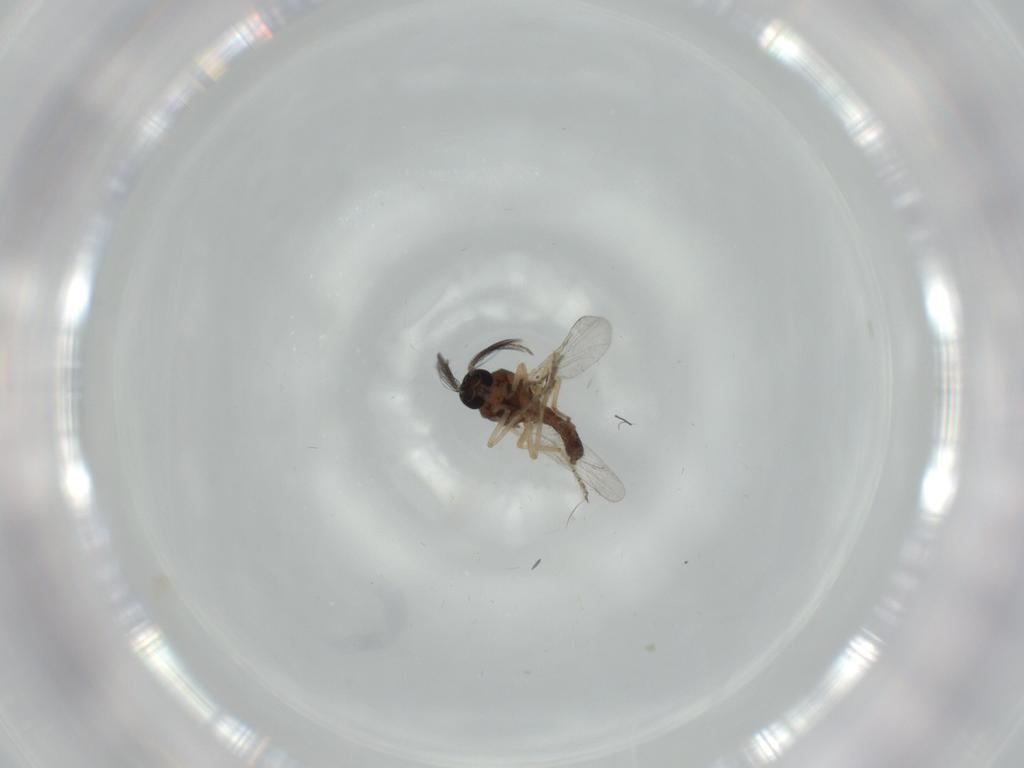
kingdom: Animalia
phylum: Arthropoda
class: Insecta
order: Diptera
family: Ceratopogonidae
